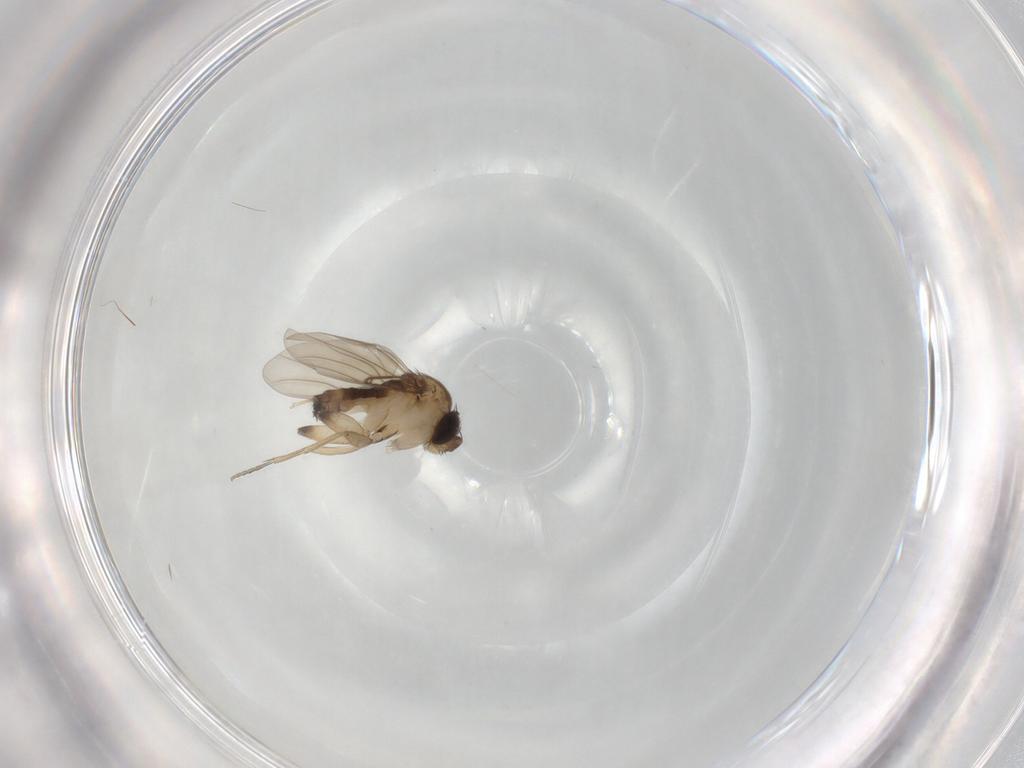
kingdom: Animalia
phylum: Arthropoda
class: Insecta
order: Diptera
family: Phoridae
